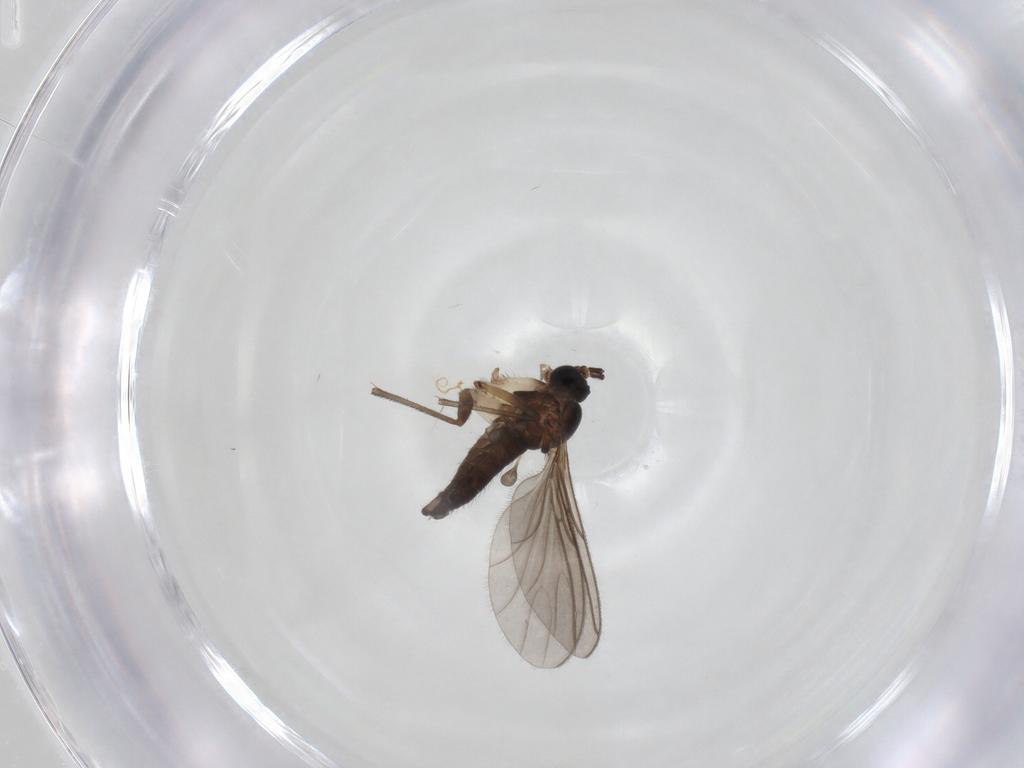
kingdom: Animalia
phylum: Arthropoda
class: Insecta
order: Diptera
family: Sciaridae
